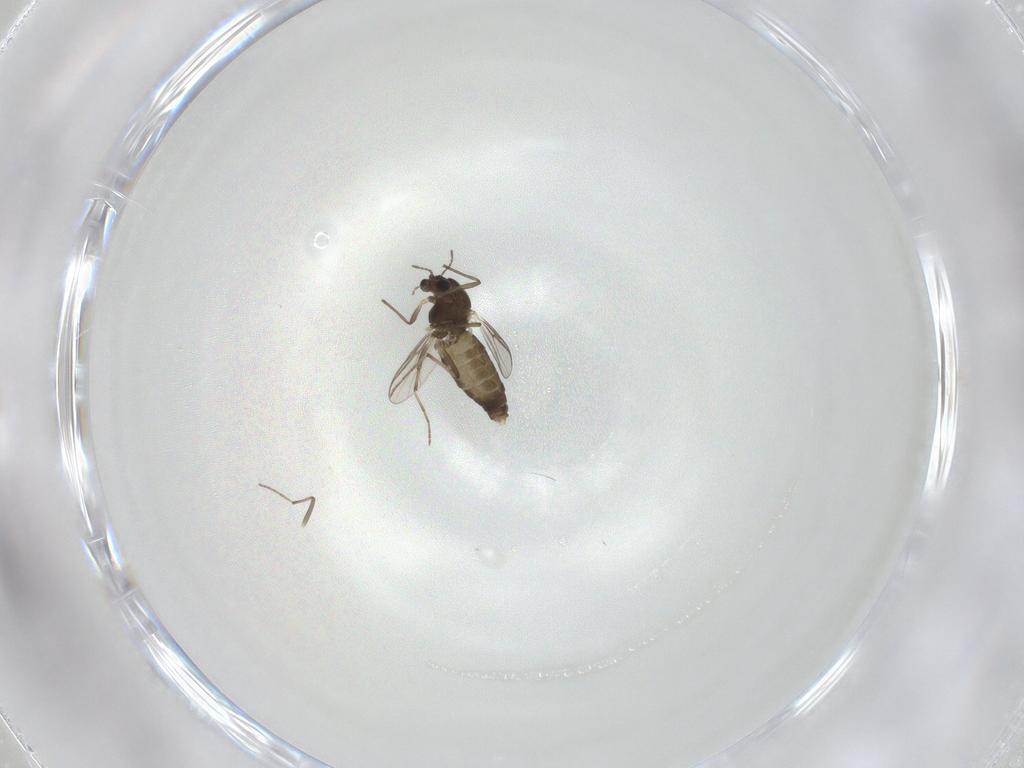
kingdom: Animalia
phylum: Arthropoda
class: Insecta
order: Diptera
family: Chironomidae
